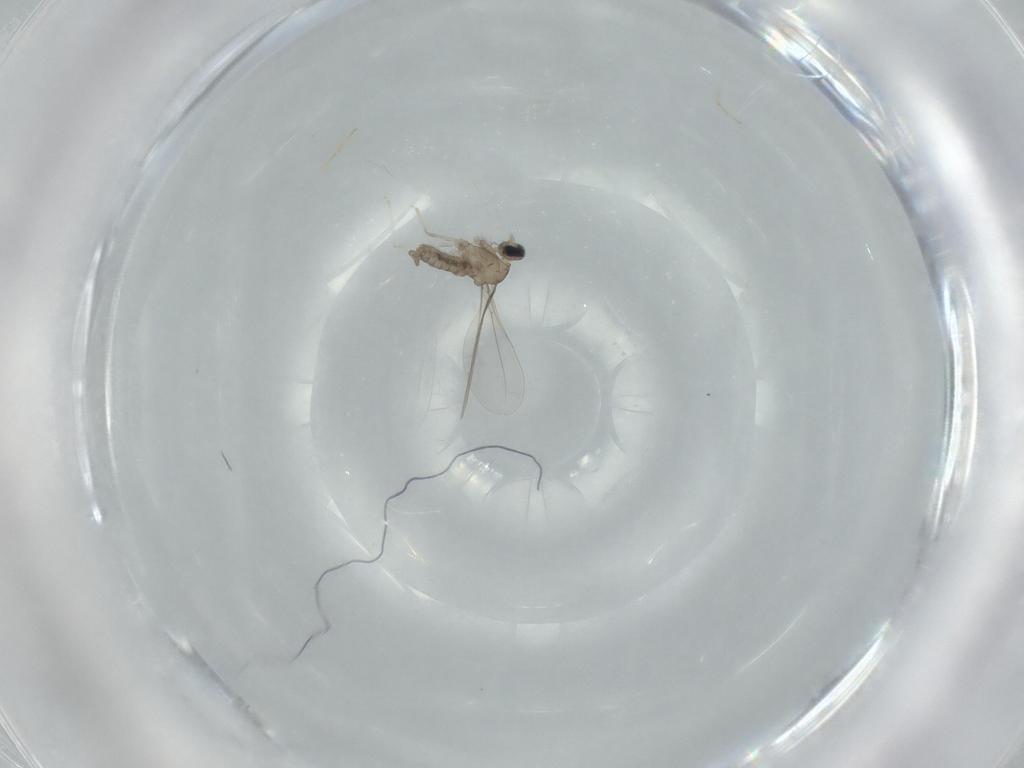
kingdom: Animalia
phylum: Arthropoda
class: Insecta
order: Diptera
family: Cecidomyiidae
